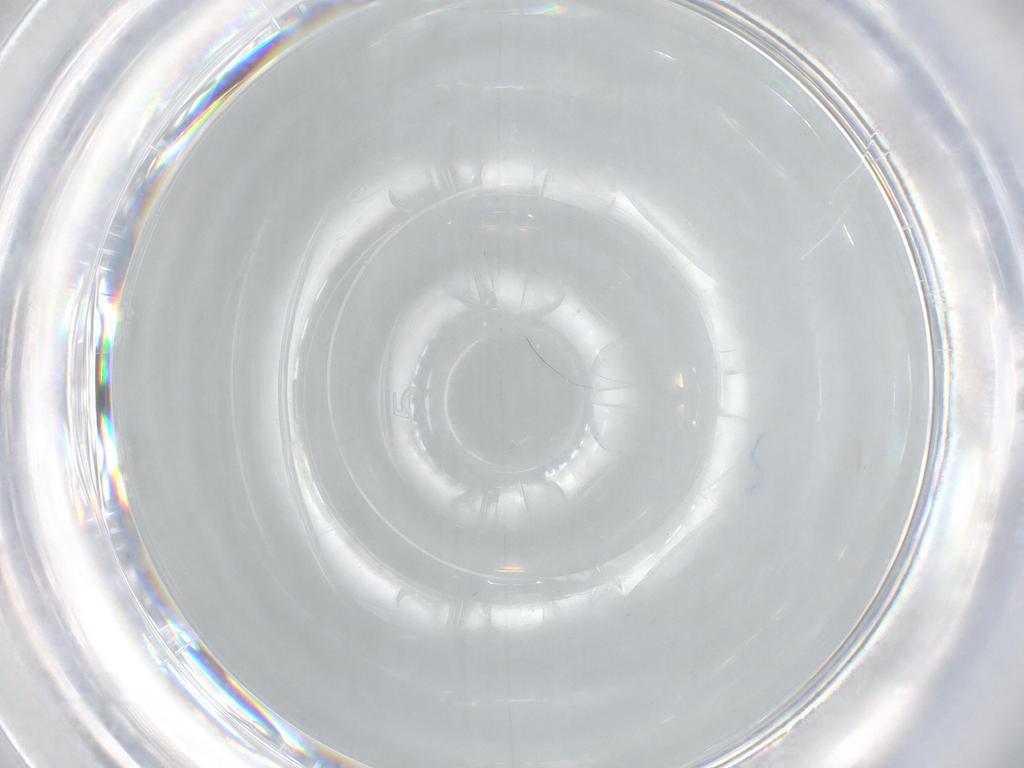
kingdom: Animalia
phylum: Arthropoda
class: Insecta
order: Diptera
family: Cecidomyiidae
